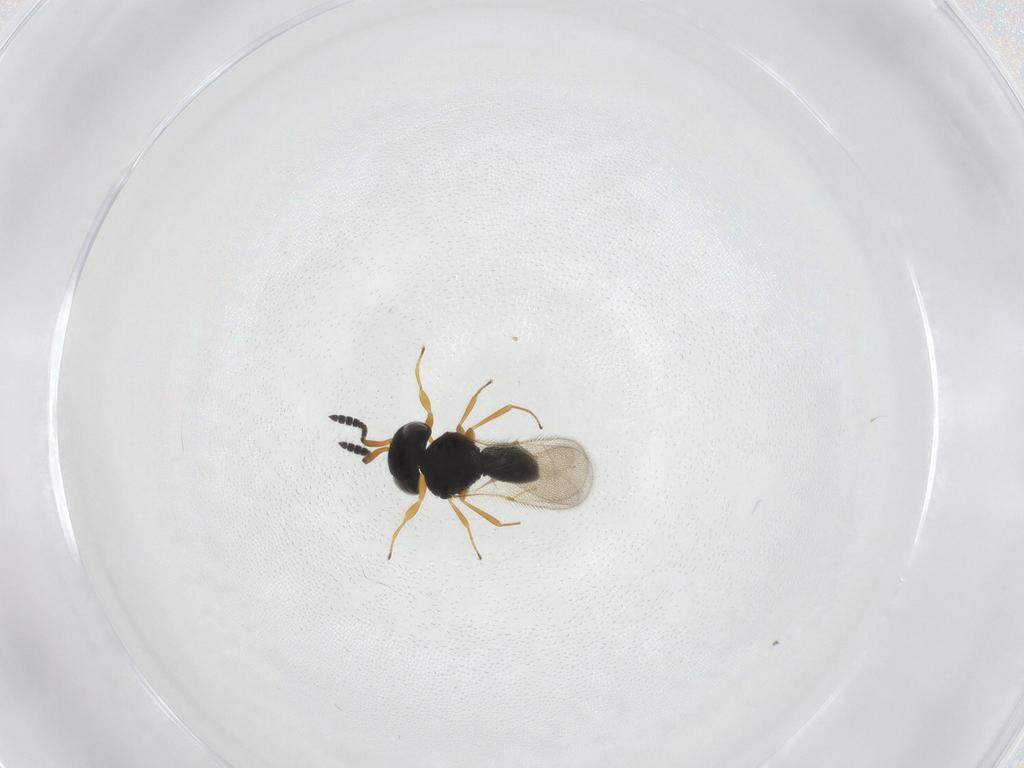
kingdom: Animalia
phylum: Arthropoda
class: Insecta
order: Hymenoptera
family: Scelionidae
